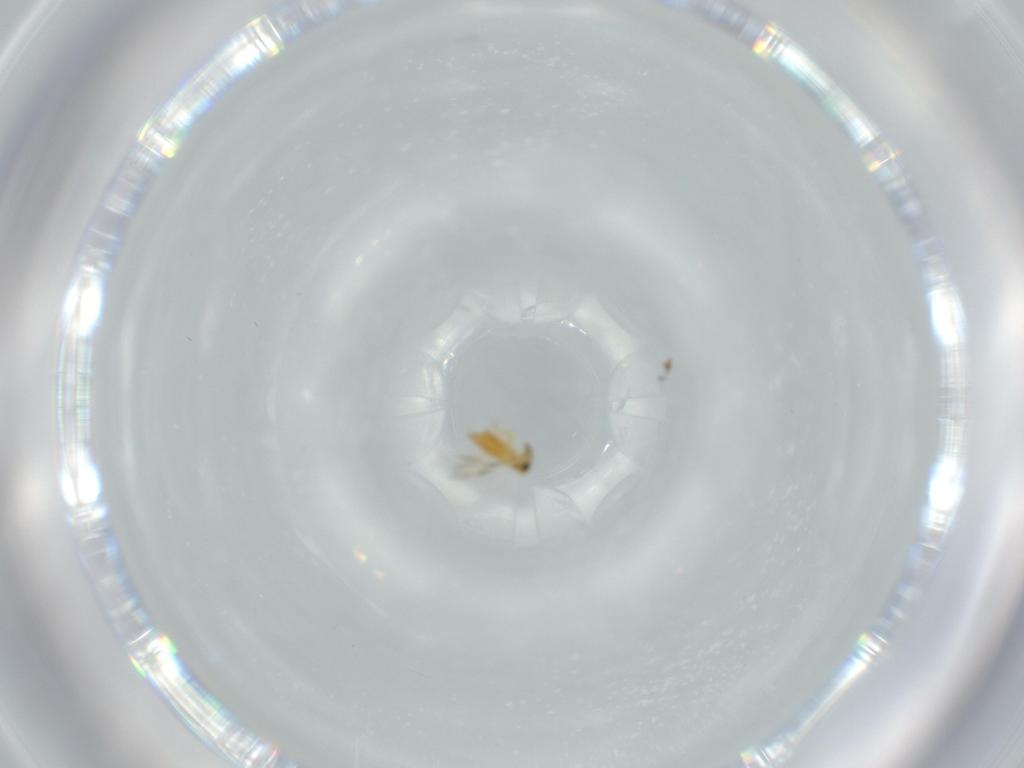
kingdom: Animalia
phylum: Arthropoda
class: Insecta
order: Hymenoptera
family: Signiphoridae
